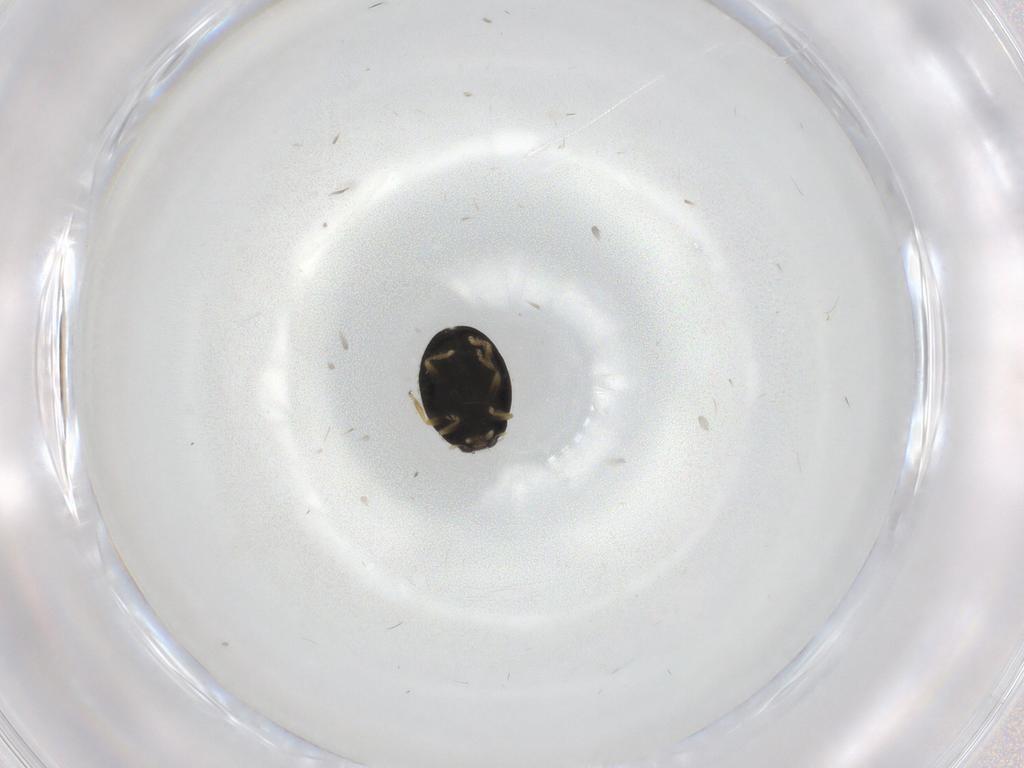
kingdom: Animalia
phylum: Arthropoda
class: Insecta
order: Coleoptera
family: Coccinellidae
